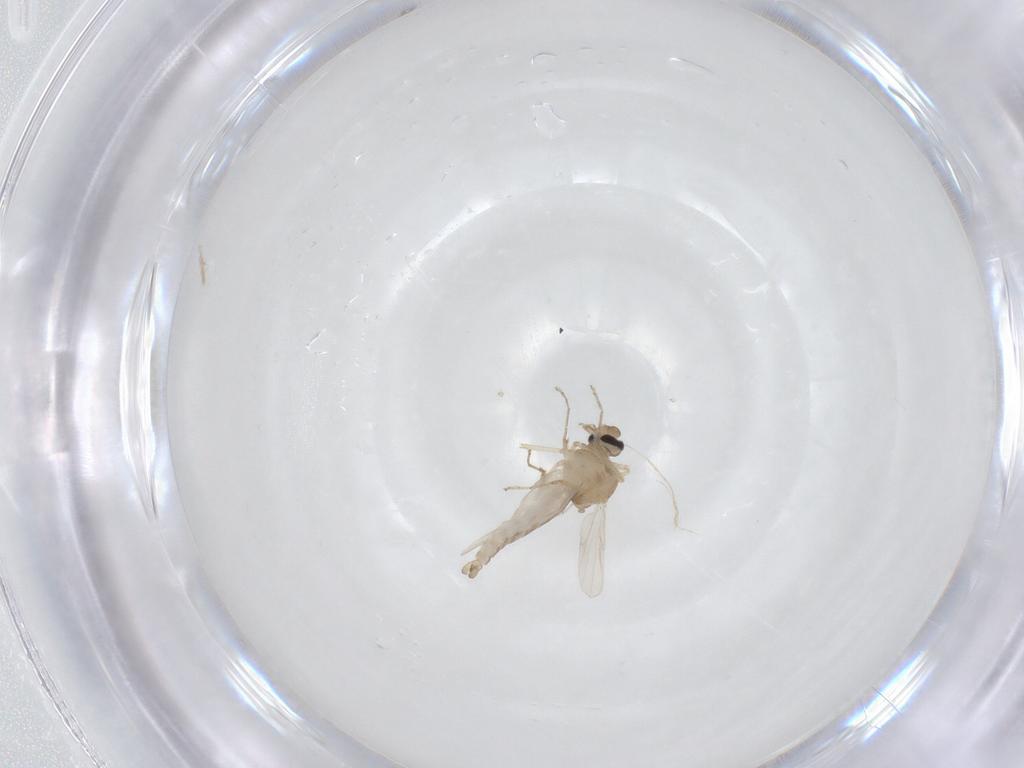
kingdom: Animalia
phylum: Arthropoda
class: Insecta
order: Diptera
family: Ceratopogonidae
